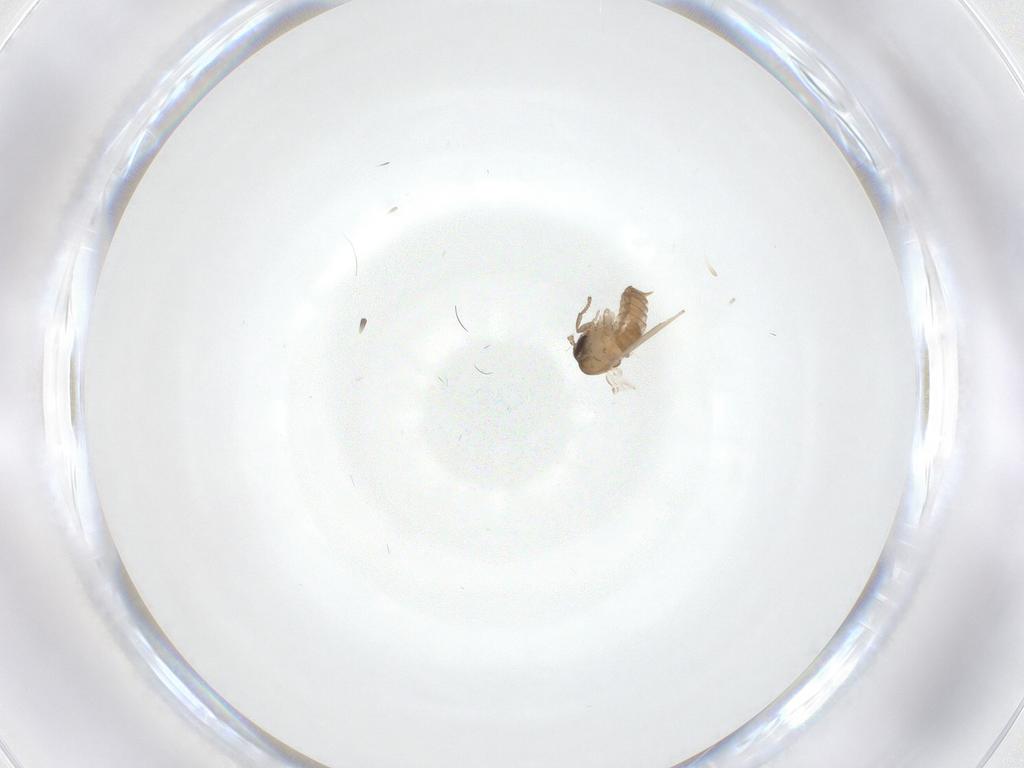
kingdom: Animalia
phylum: Arthropoda
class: Insecta
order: Diptera
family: Psychodidae
